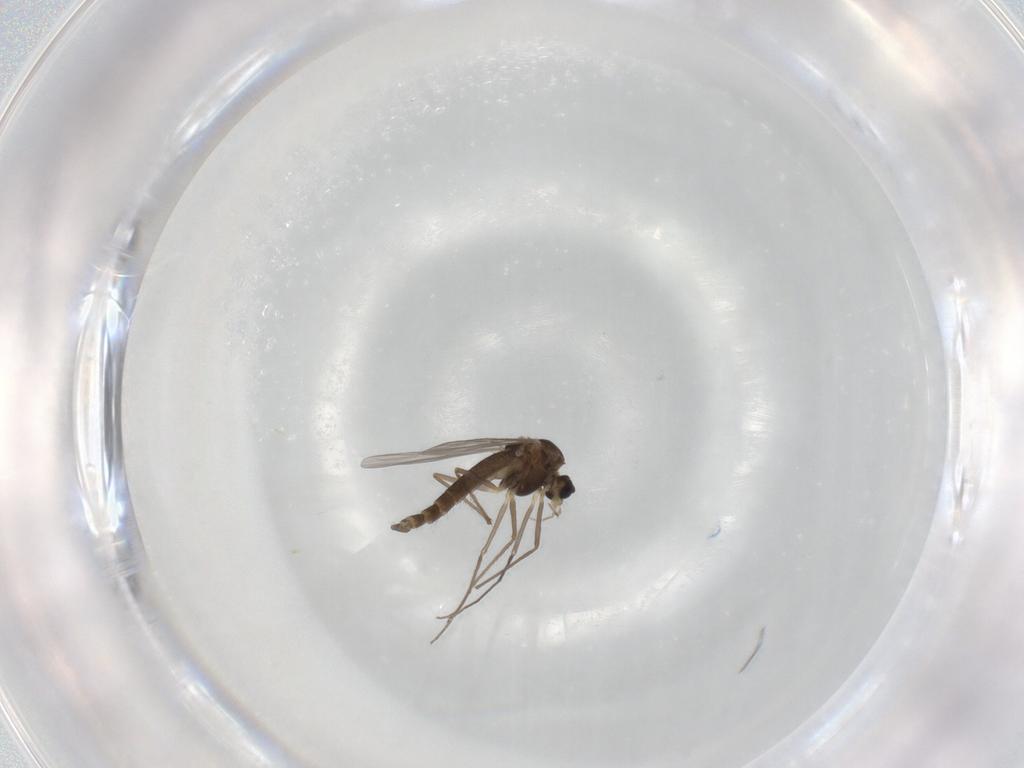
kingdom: Animalia
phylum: Arthropoda
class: Insecta
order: Diptera
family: Chironomidae
